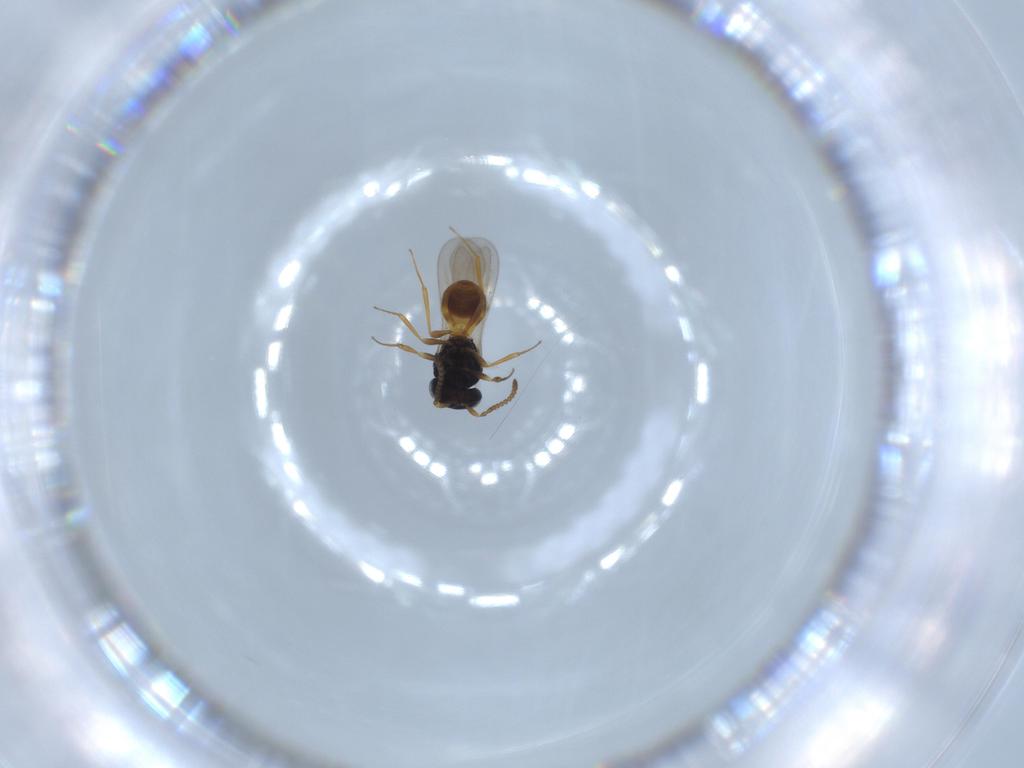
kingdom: Animalia
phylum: Arthropoda
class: Insecta
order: Hymenoptera
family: Scelionidae
